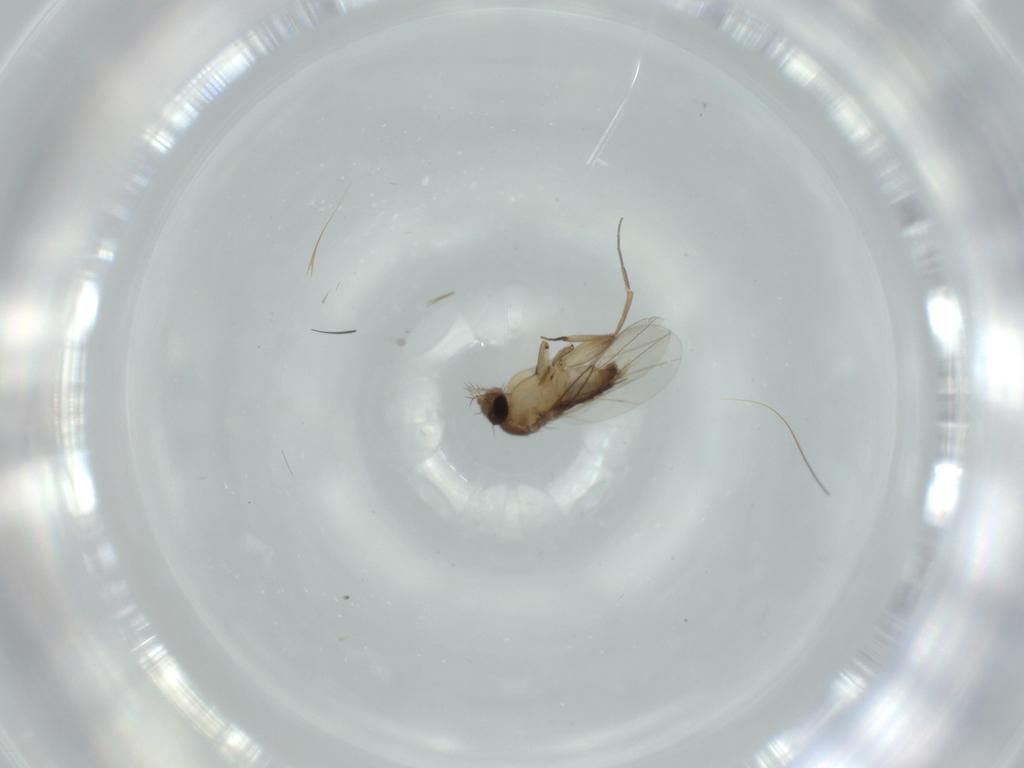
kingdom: Animalia
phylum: Arthropoda
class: Insecta
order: Diptera
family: Phoridae
